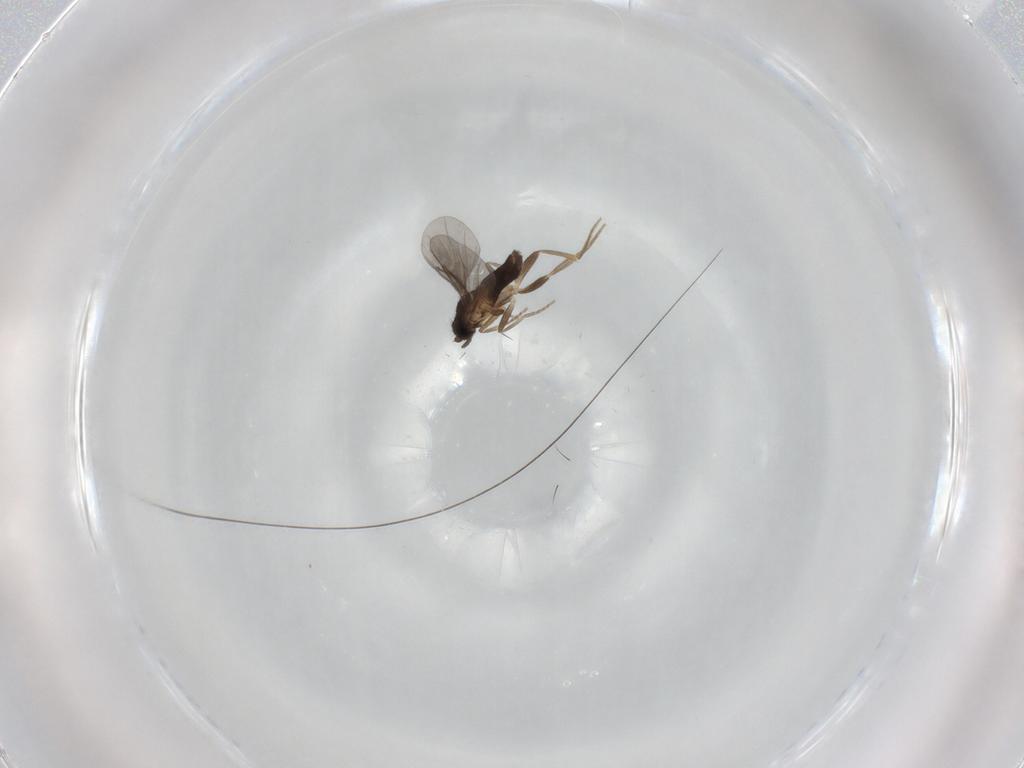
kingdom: Animalia
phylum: Arthropoda
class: Insecta
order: Diptera
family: Dolichopodidae
